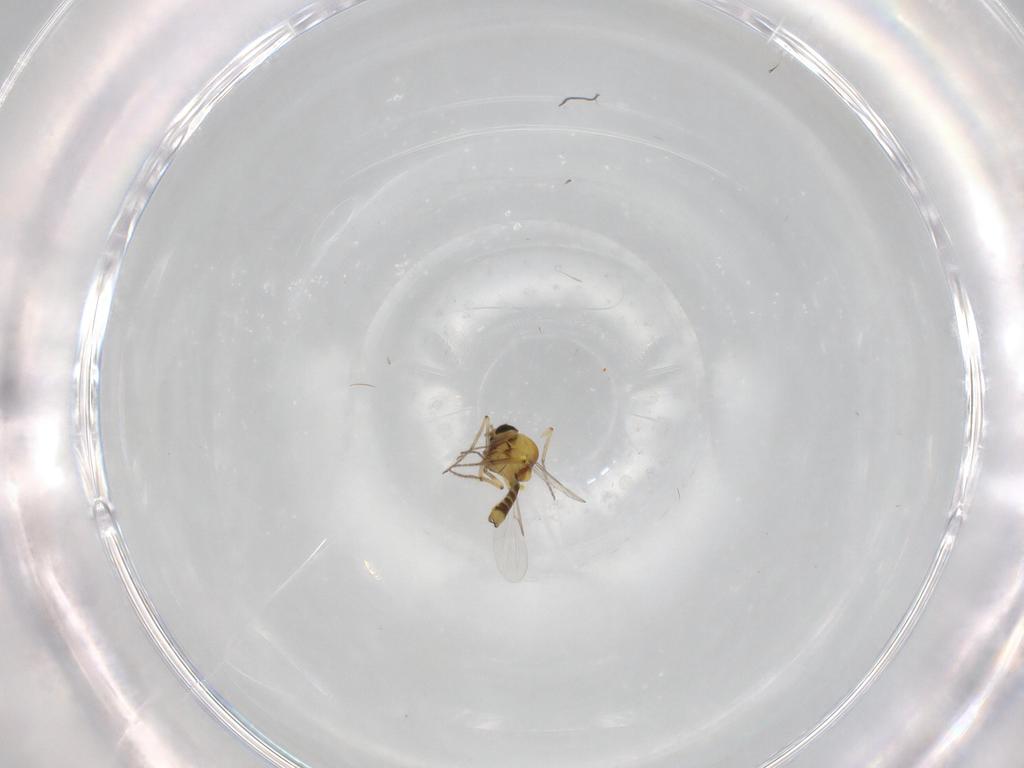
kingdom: Animalia
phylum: Arthropoda
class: Insecta
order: Diptera
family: Ceratopogonidae
